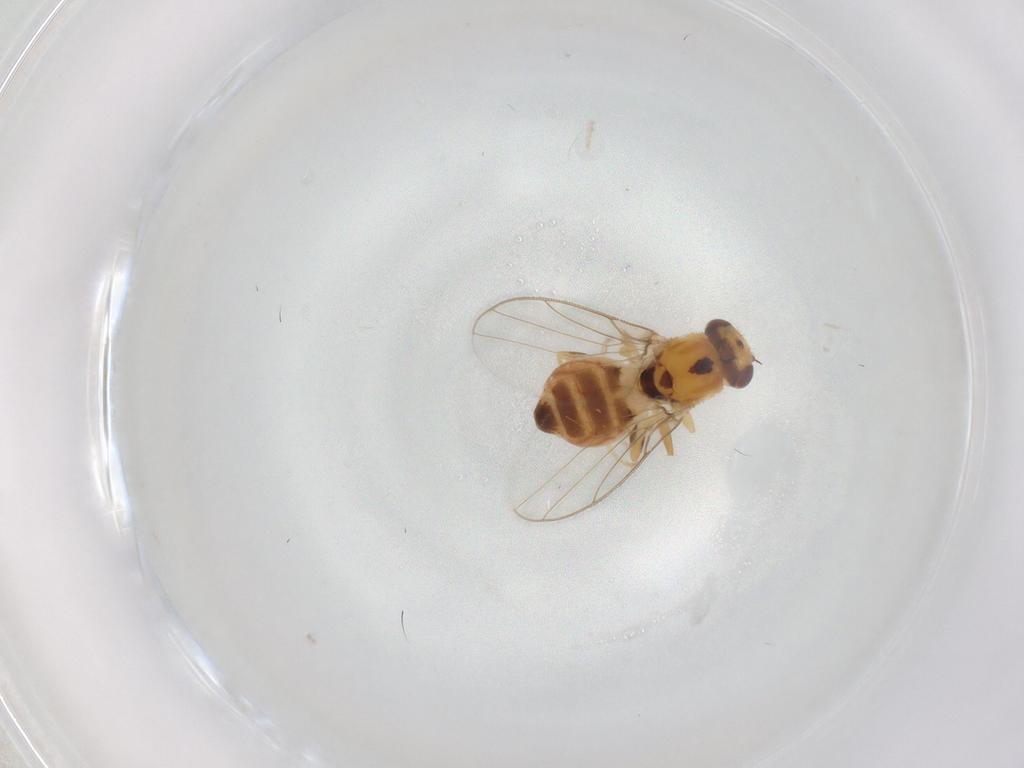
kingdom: Animalia
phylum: Arthropoda
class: Insecta
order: Diptera
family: Chloropidae
